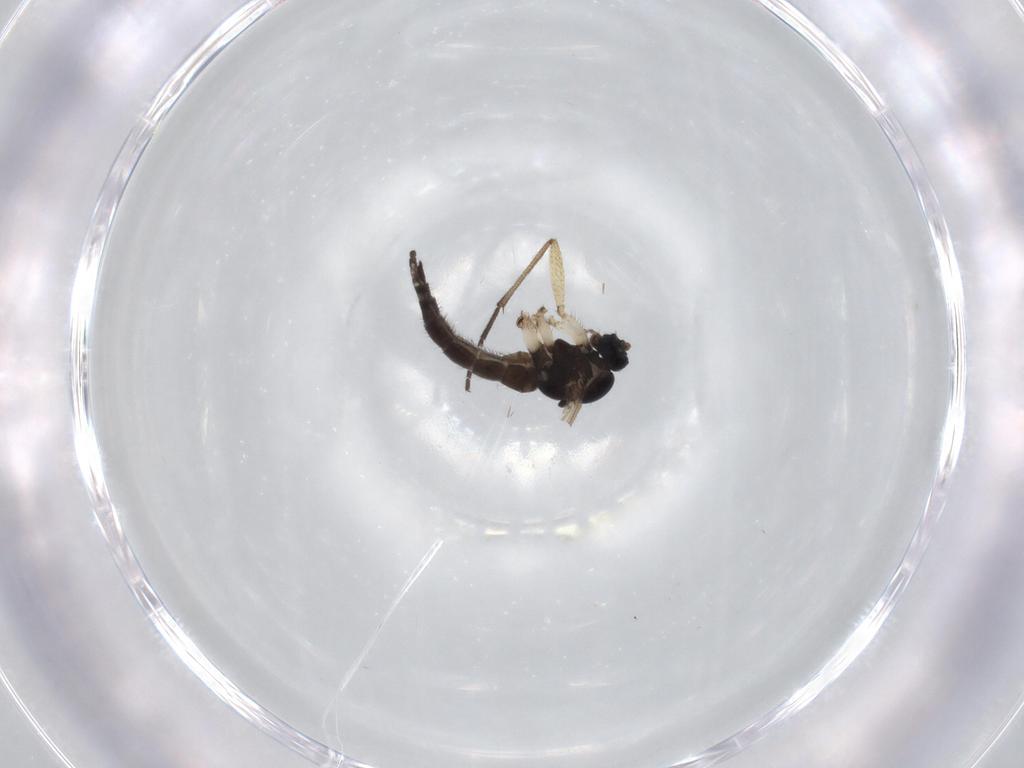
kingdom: Animalia
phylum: Arthropoda
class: Insecta
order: Diptera
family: Sciaridae
